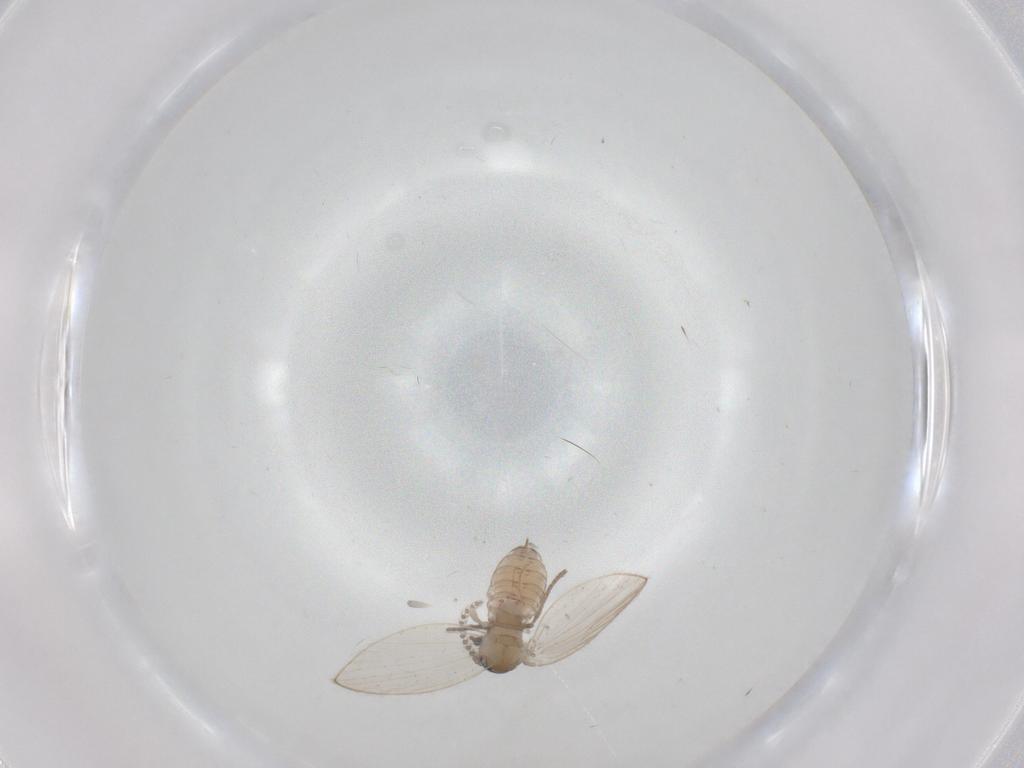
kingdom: Animalia
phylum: Arthropoda
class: Insecta
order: Diptera
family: Psychodidae
